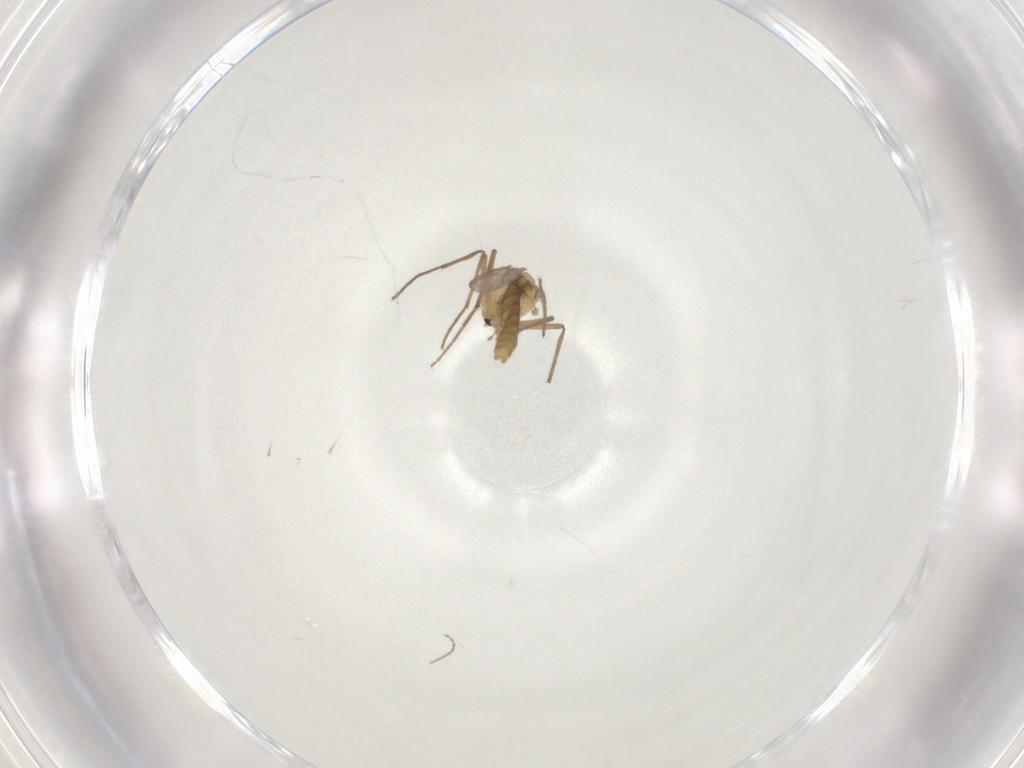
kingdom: Animalia
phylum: Arthropoda
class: Insecta
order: Diptera
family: Chironomidae
